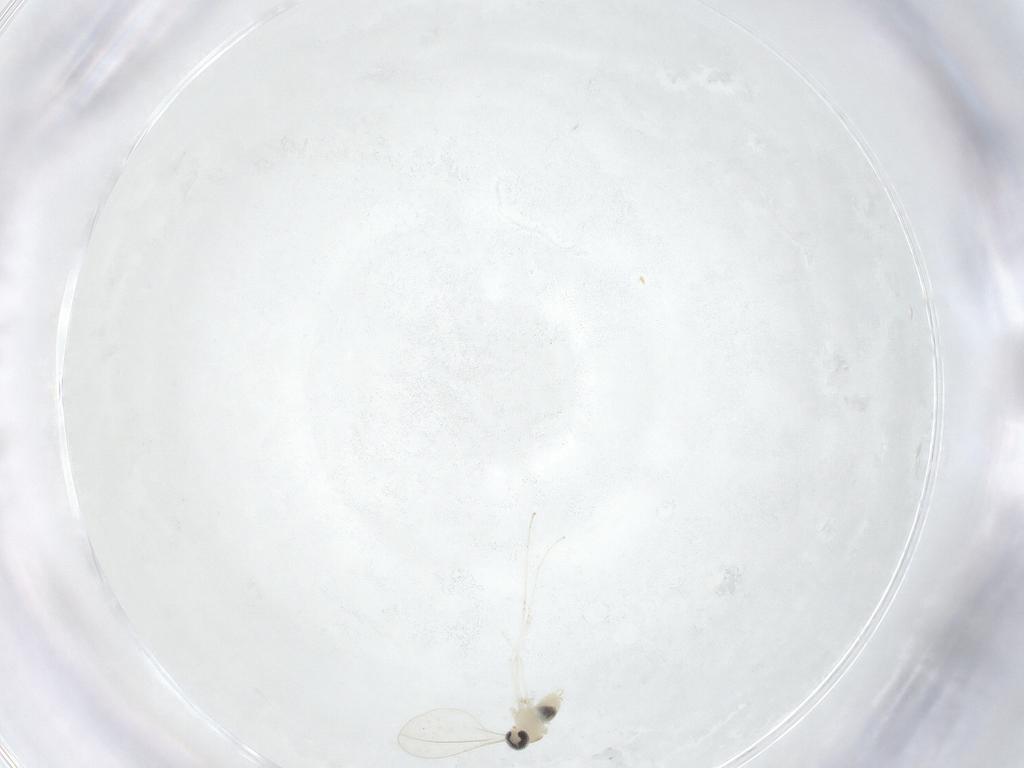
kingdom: Animalia
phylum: Arthropoda
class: Insecta
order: Diptera
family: Cecidomyiidae
